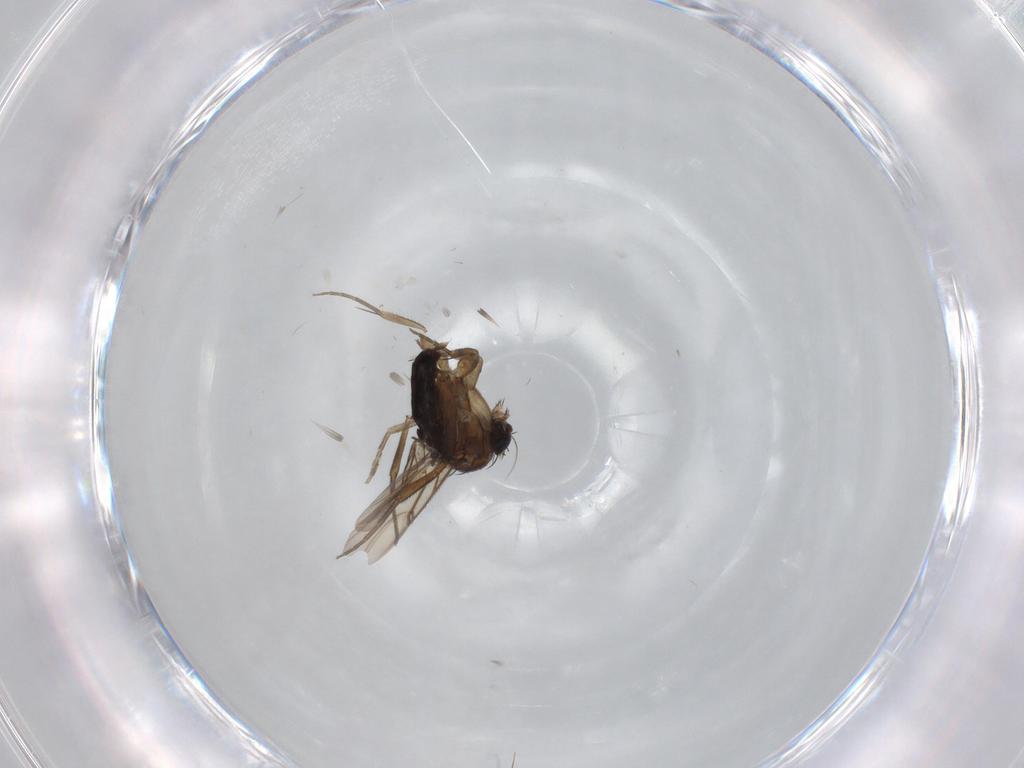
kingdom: Animalia
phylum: Arthropoda
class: Insecta
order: Diptera
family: Chironomidae
